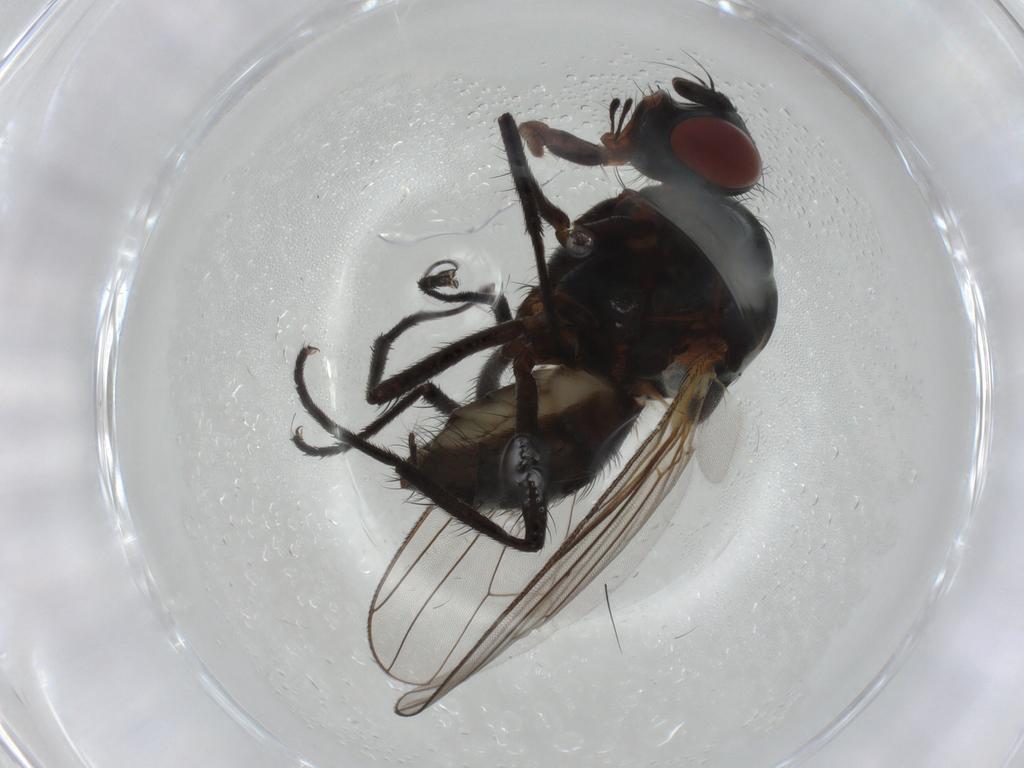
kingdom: Animalia
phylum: Arthropoda
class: Insecta
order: Diptera
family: Anthomyiidae
